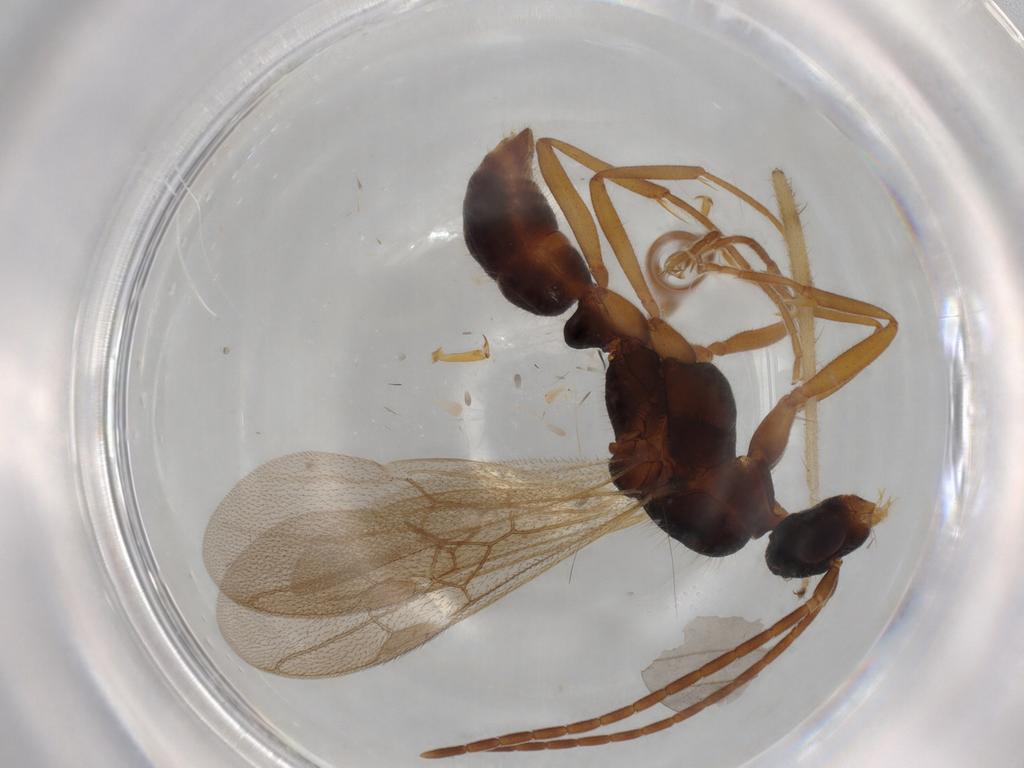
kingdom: Animalia
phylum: Arthropoda
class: Insecta
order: Hymenoptera
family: Formicidae
